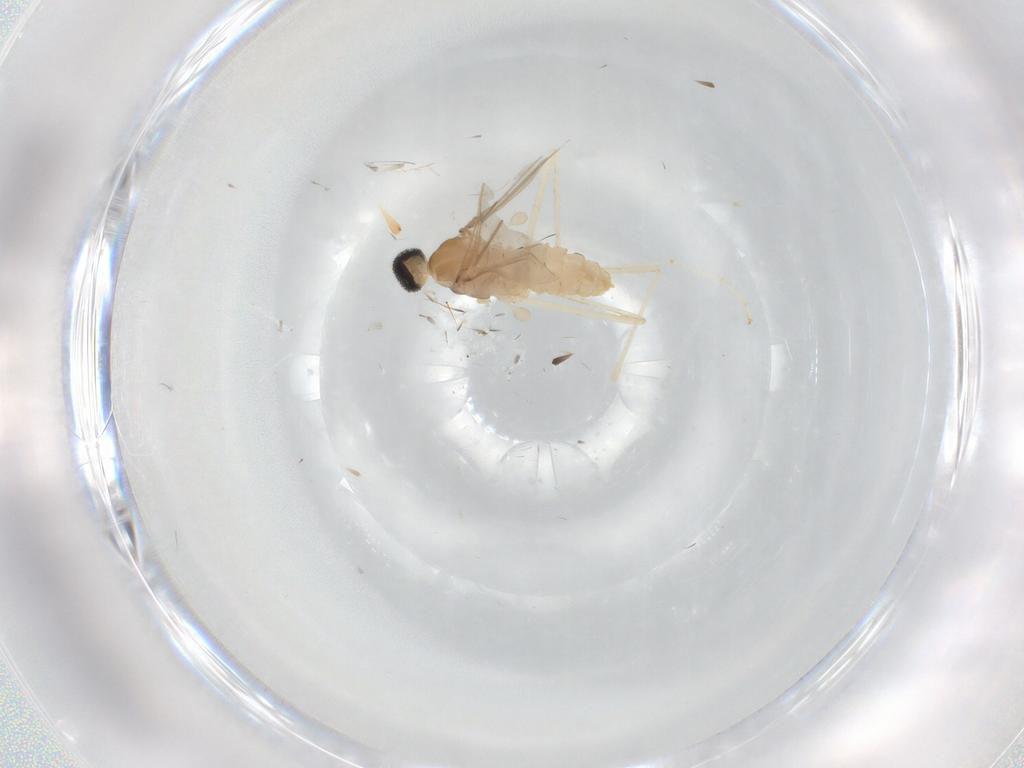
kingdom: Animalia
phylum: Arthropoda
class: Insecta
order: Diptera
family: Cecidomyiidae
